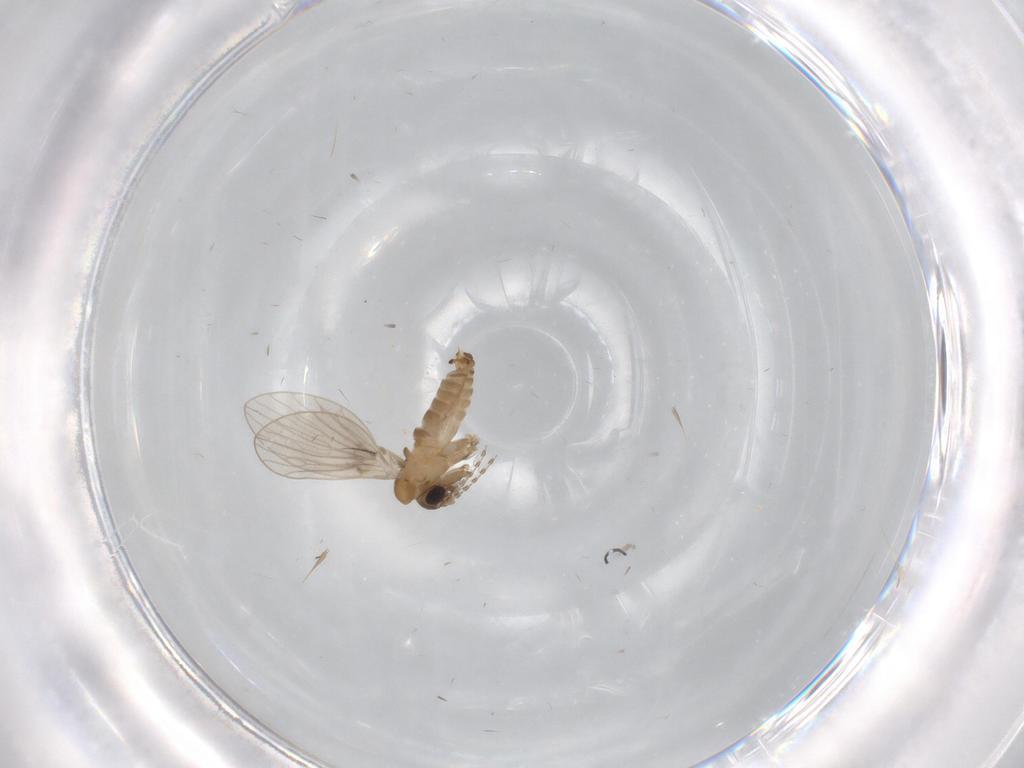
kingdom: Animalia
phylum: Arthropoda
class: Insecta
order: Diptera
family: Limoniidae
